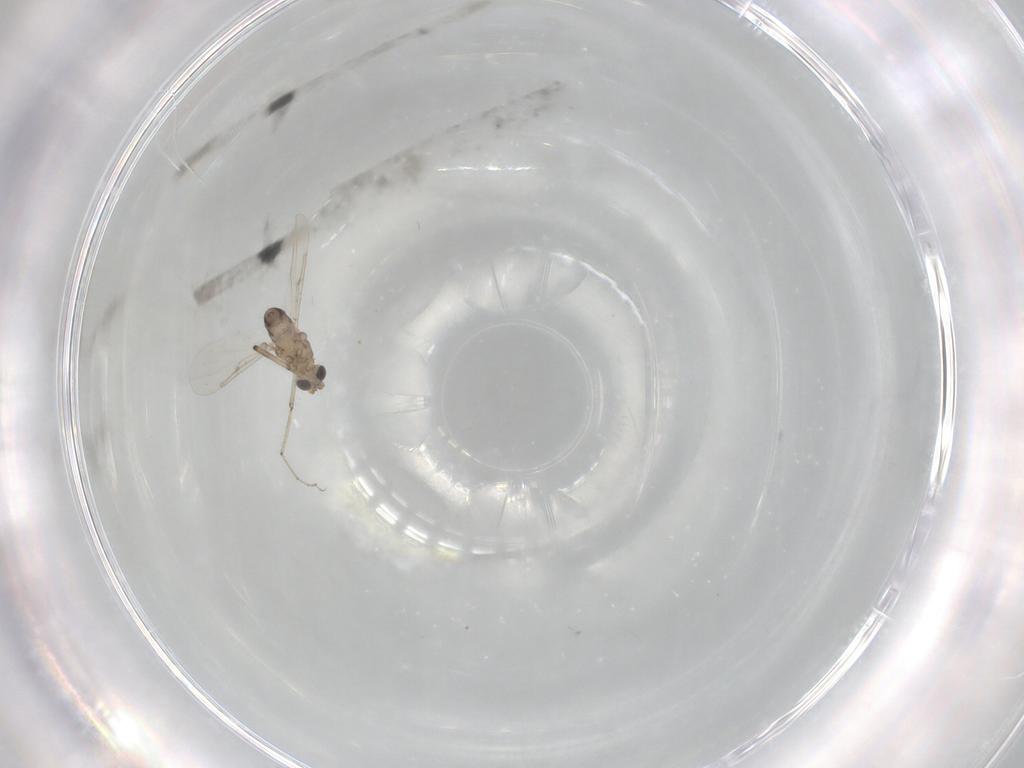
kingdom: Animalia
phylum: Arthropoda
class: Insecta
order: Diptera
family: Ceratopogonidae
